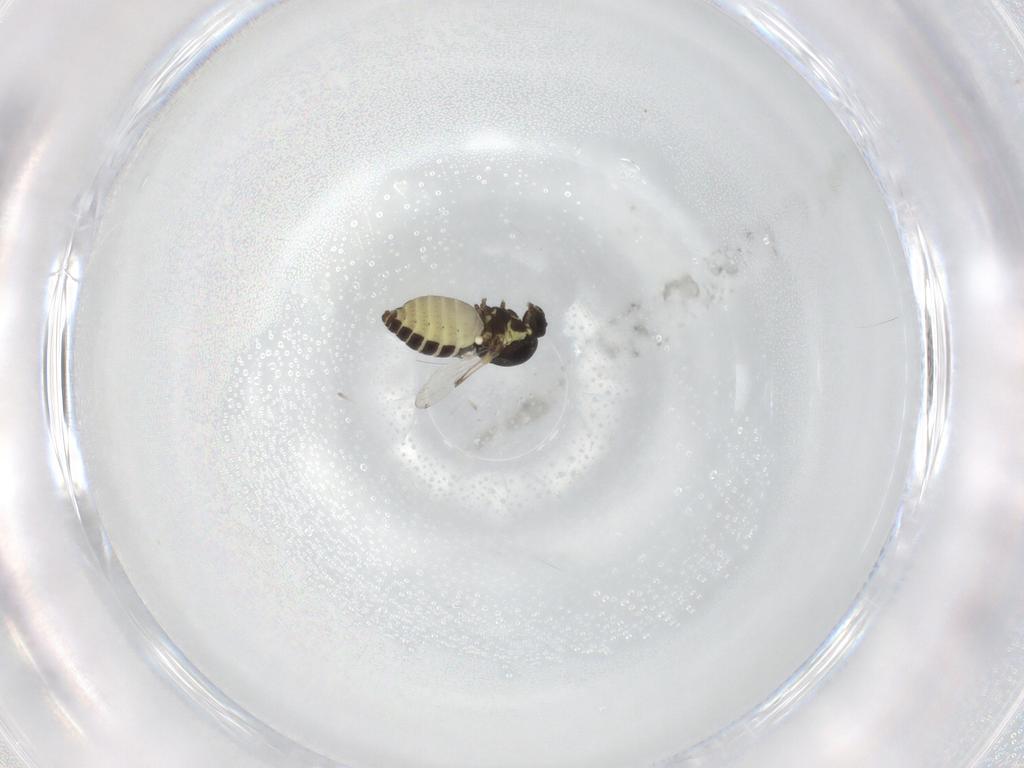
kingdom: Animalia
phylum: Arthropoda
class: Insecta
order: Diptera
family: Ceratopogonidae
